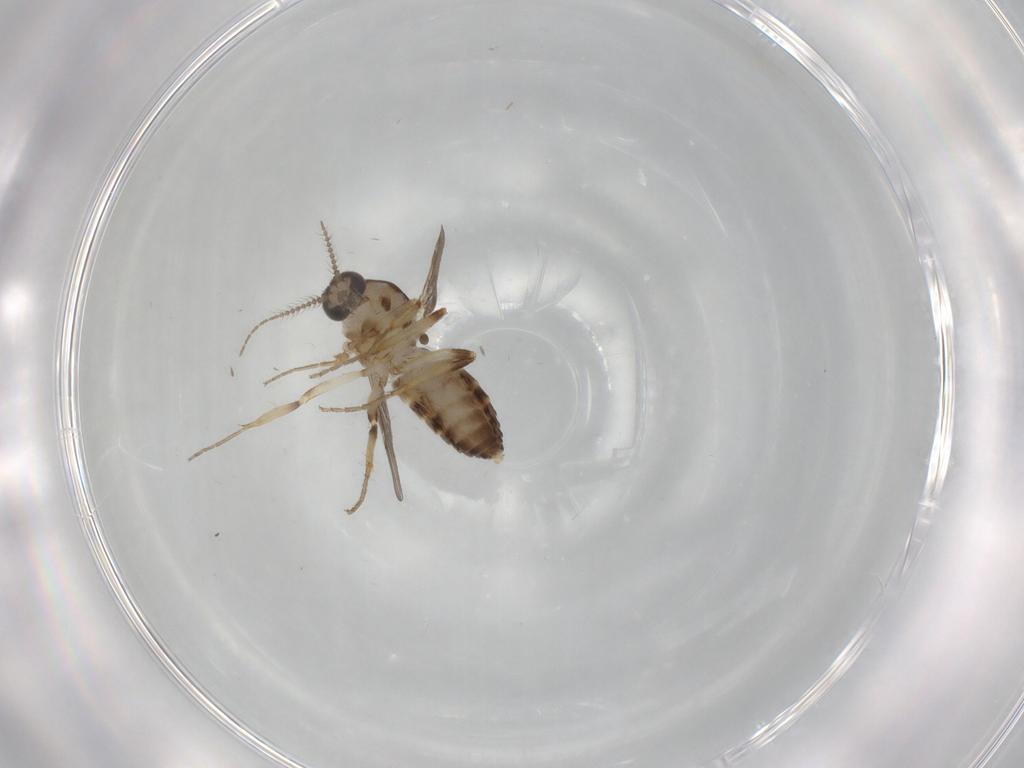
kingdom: Animalia
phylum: Arthropoda
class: Insecta
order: Diptera
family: Ceratopogonidae
